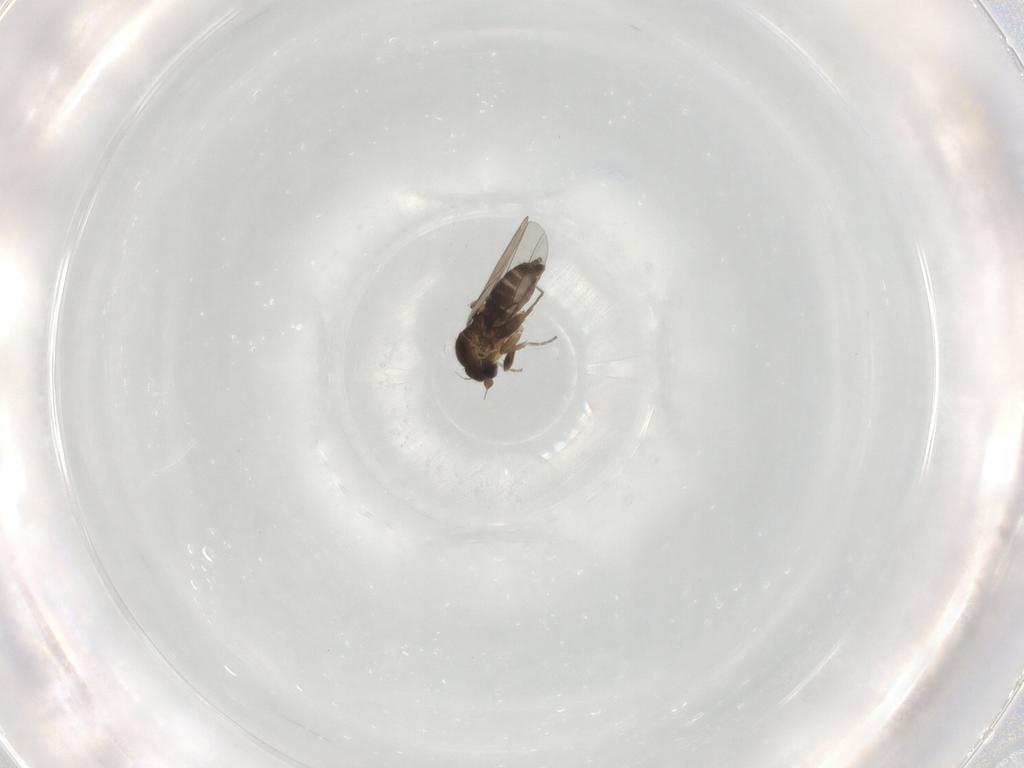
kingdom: Animalia
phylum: Arthropoda
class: Insecta
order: Diptera
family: Phoridae
